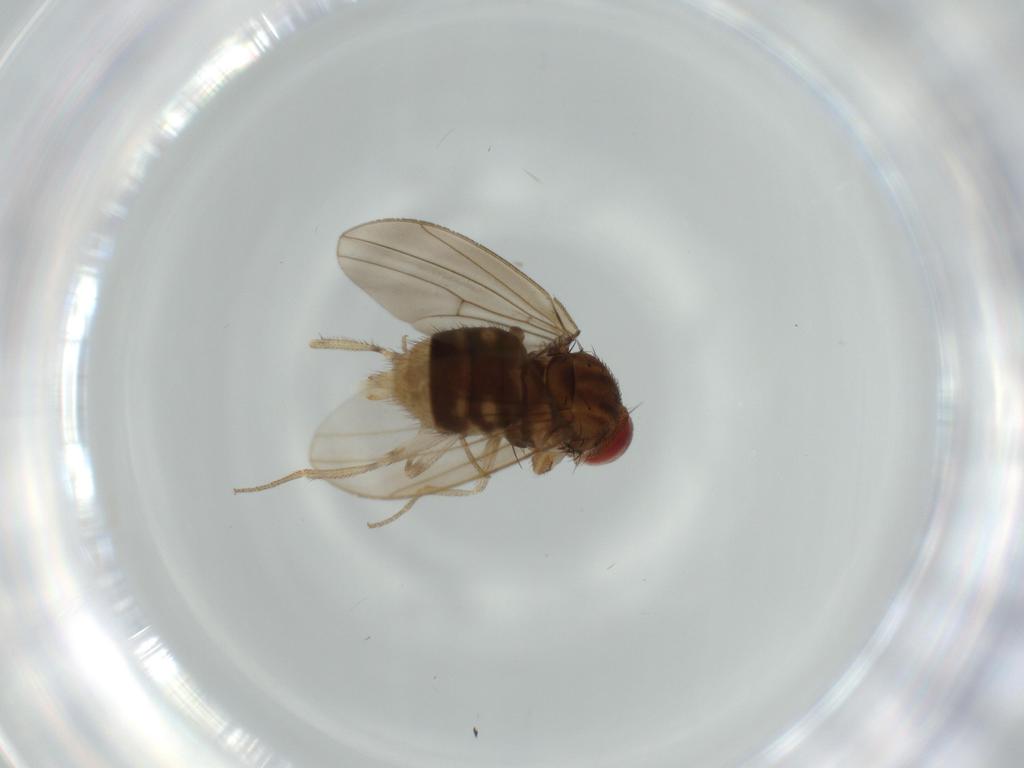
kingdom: Animalia
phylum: Arthropoda
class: Insecta
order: Diptera
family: Drosophilidae
